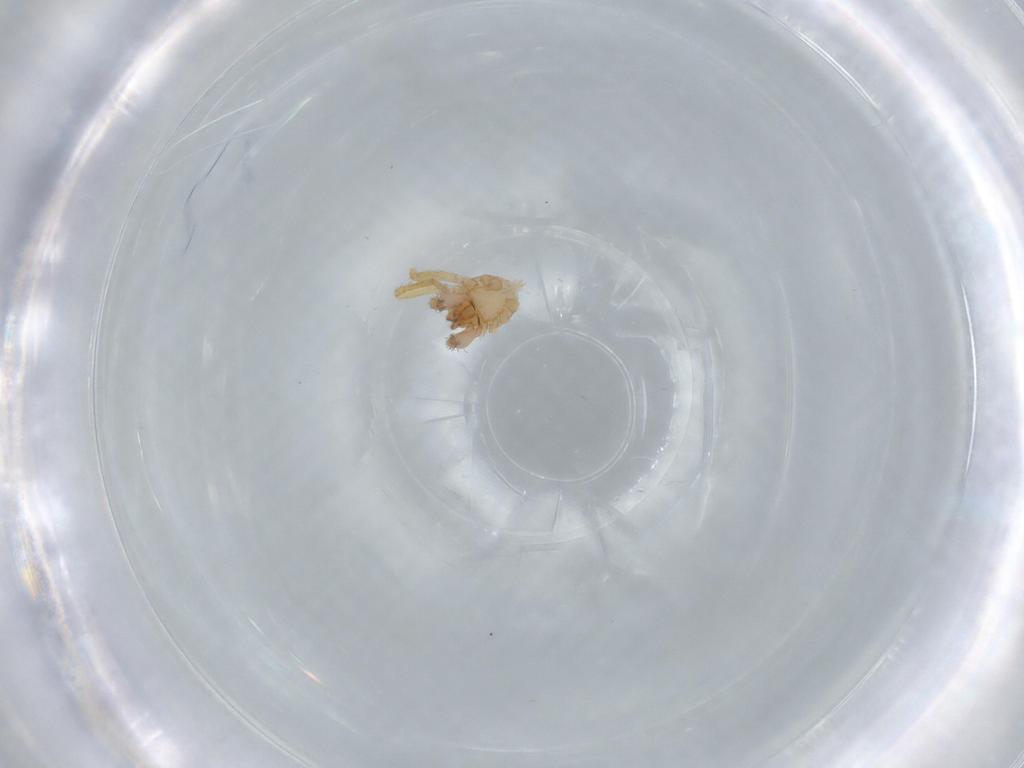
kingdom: Animalia
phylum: Arthropoda
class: Arachnida
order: Araneae
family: Oonopidae
